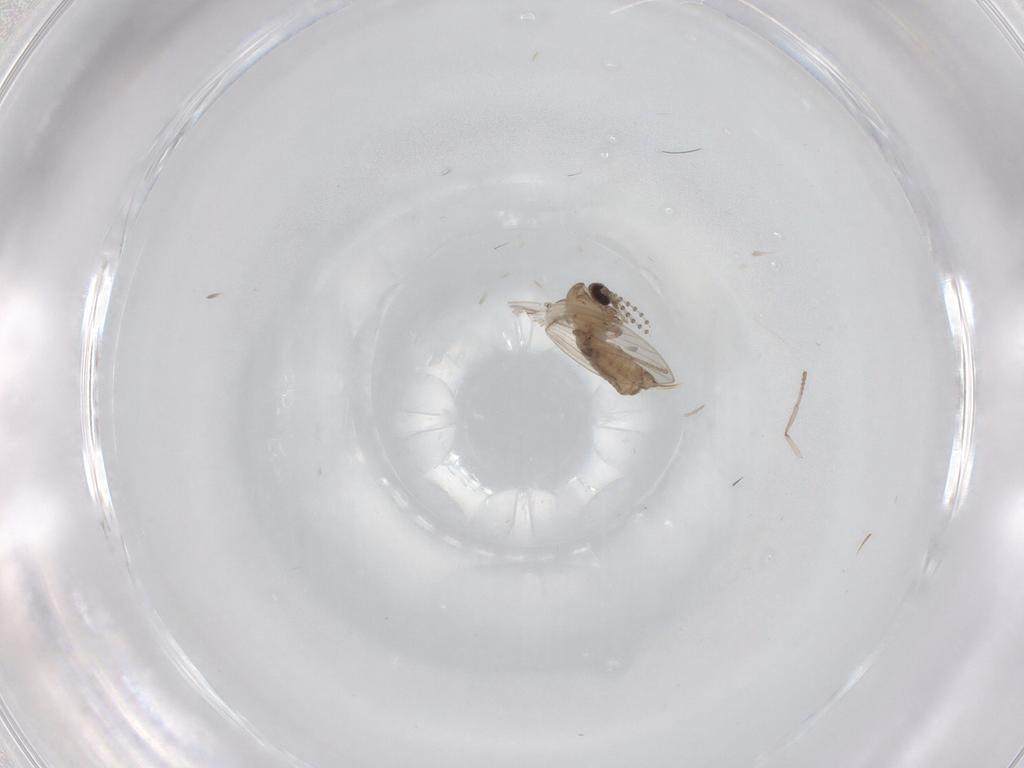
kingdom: Animalia
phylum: Arthropoda
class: Insecta
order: Diptera
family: Psychodidae
